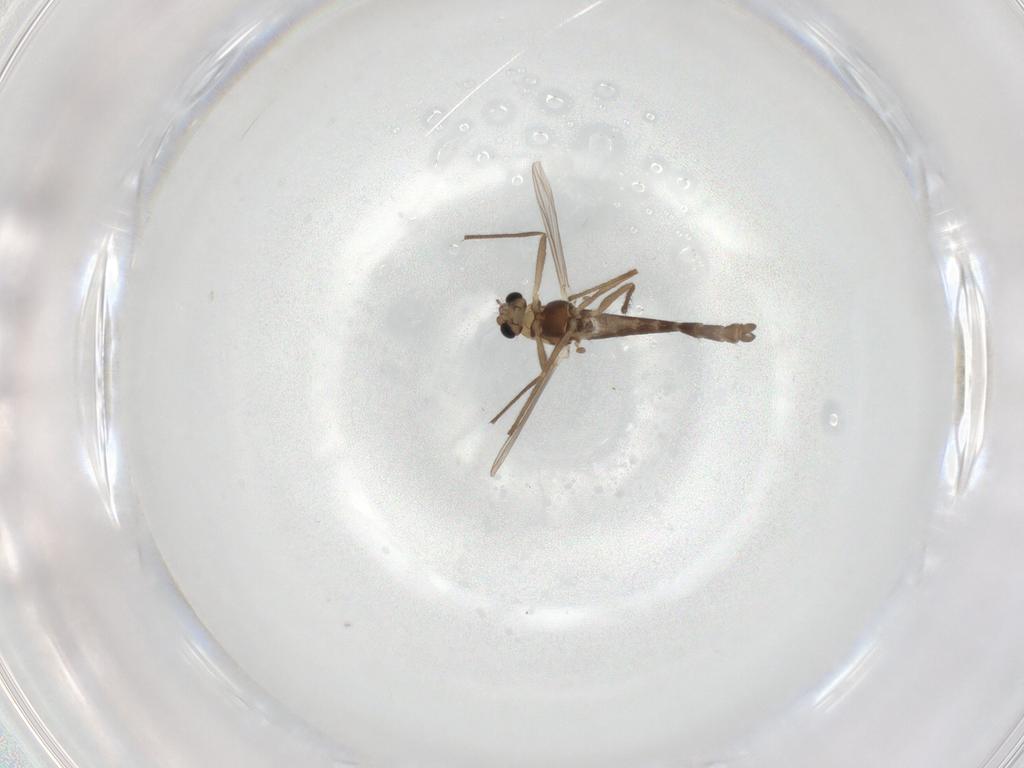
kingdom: Animalia
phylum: Arthropoda
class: Insecta
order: Diptera
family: Chironomidae
